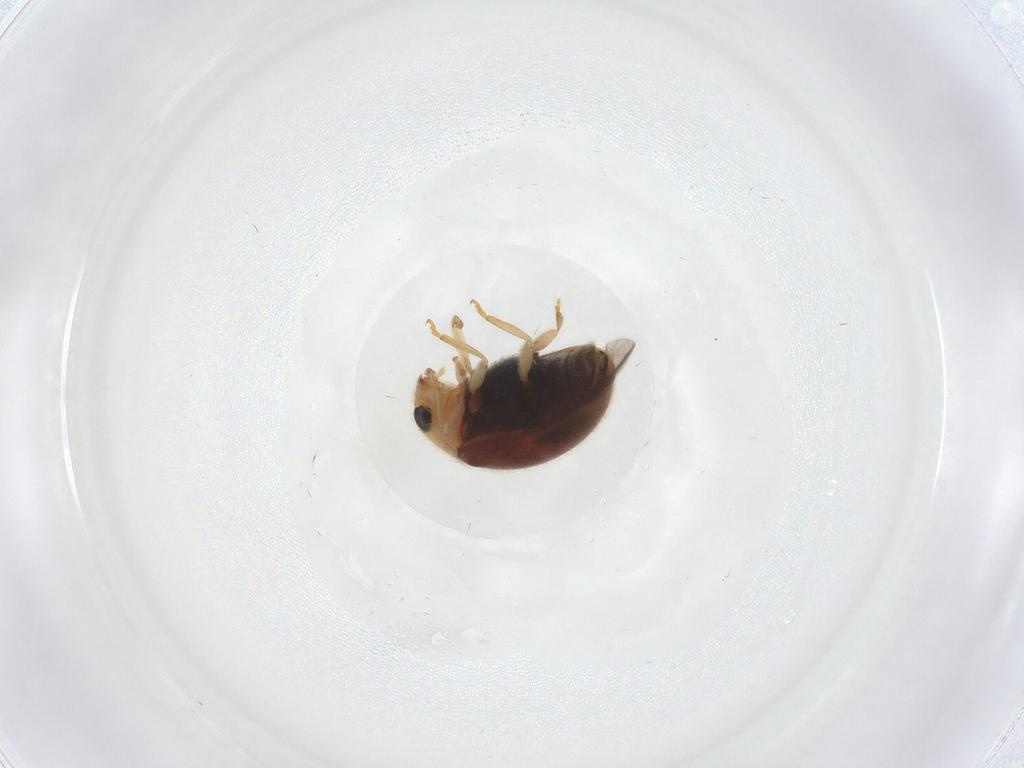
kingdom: Animalia
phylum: Arthropoda
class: Insecta
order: Coleoptera
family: Coccinellidae
